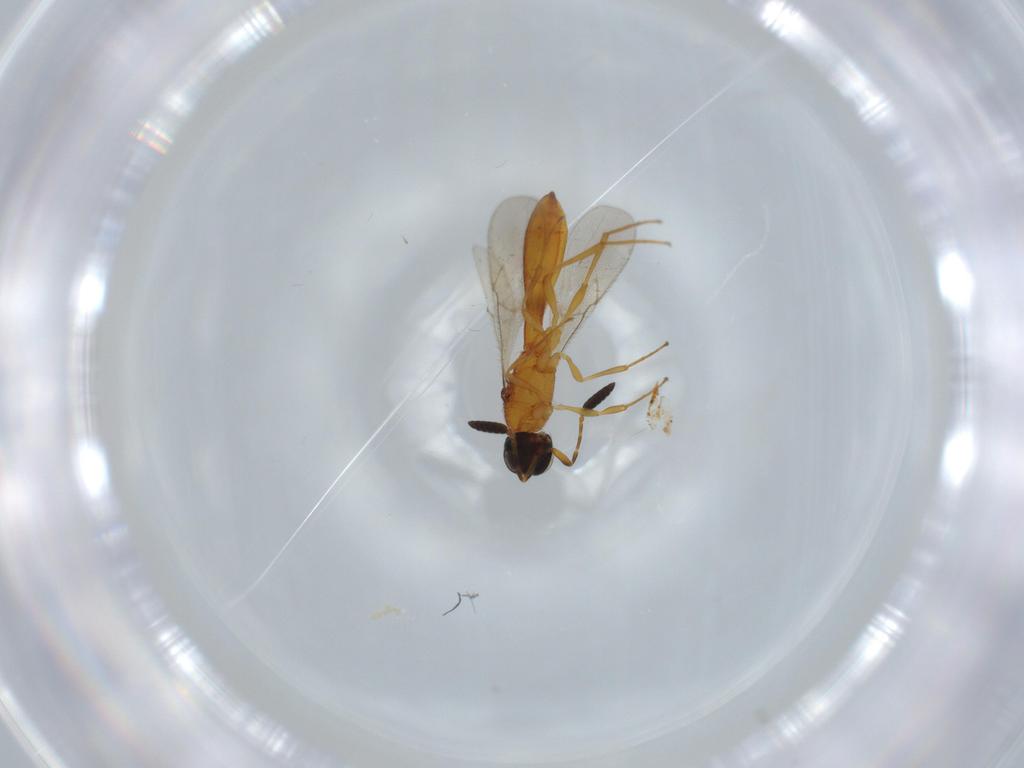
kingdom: Animalia
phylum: Arthropoda
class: Insecta
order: Hymenoptera
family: Scelionidae
